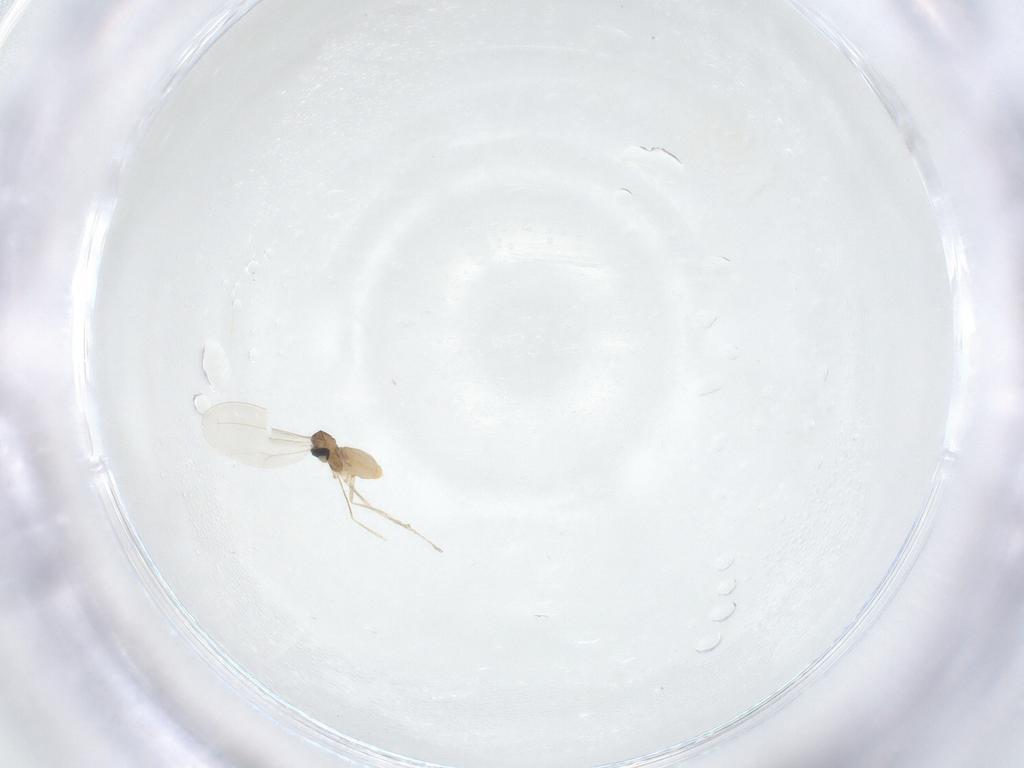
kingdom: Animalia
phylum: Arthropoda
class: Insecta
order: Diptera
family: Cecidomyiidae
